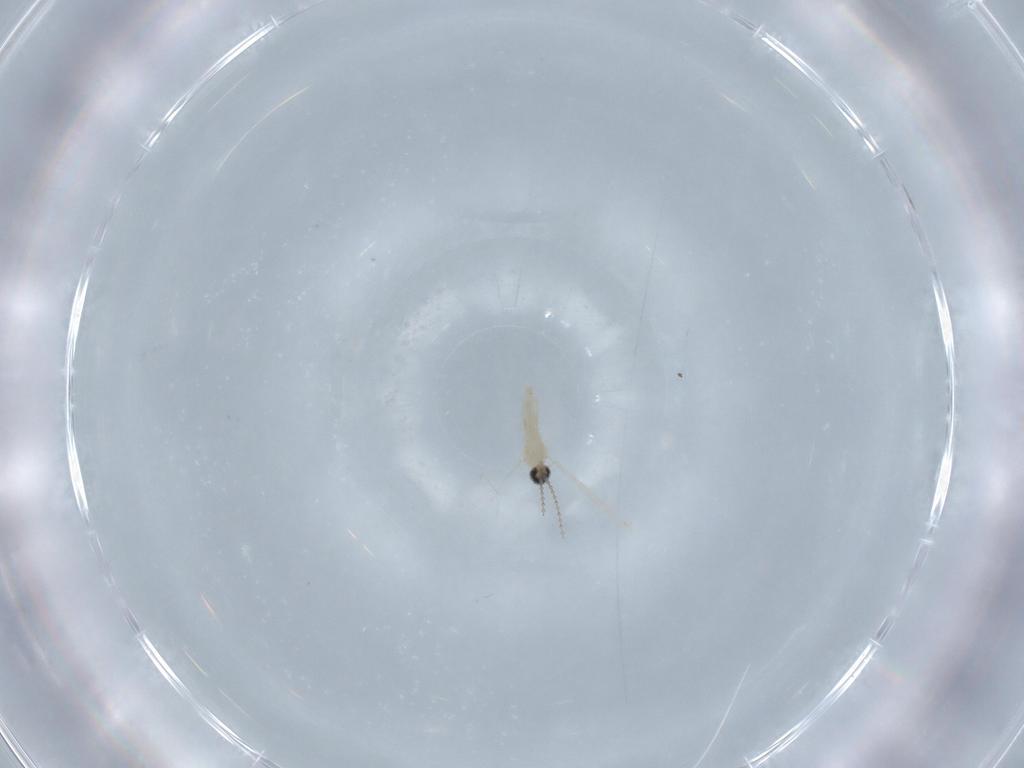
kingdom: Animalia
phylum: Arthropoda
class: Insecta
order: Diptera
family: Cecidomyiidae
